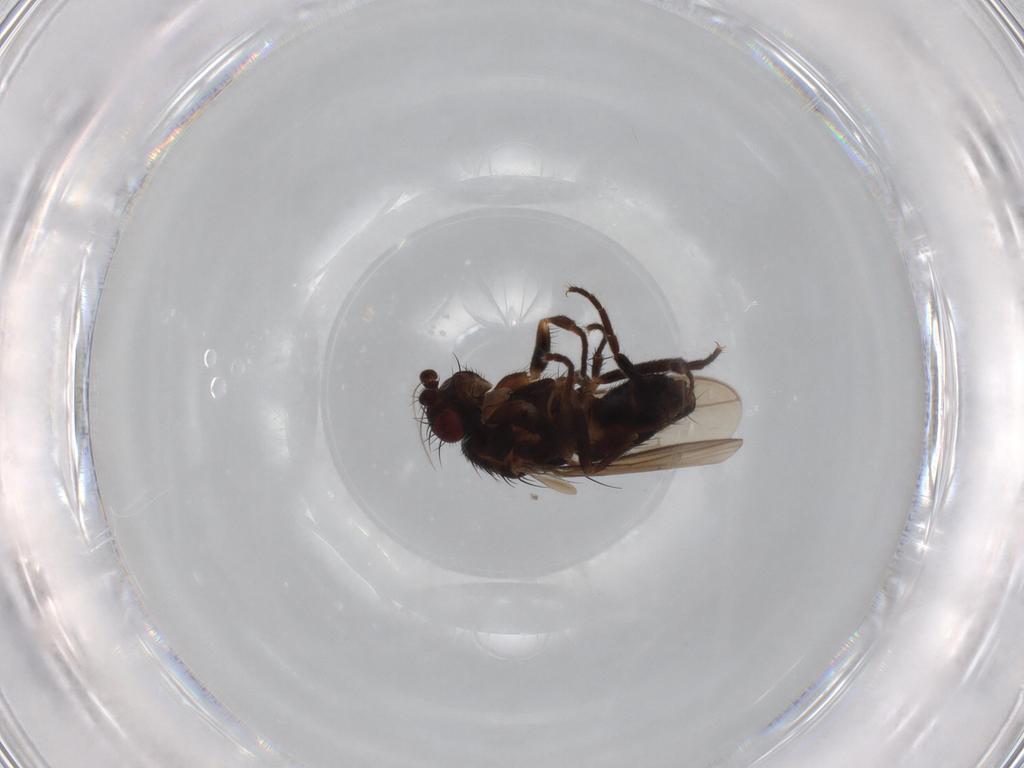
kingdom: Animalia
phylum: Arthropoda
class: Insecta
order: Diptera
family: Sphaeroceridae
